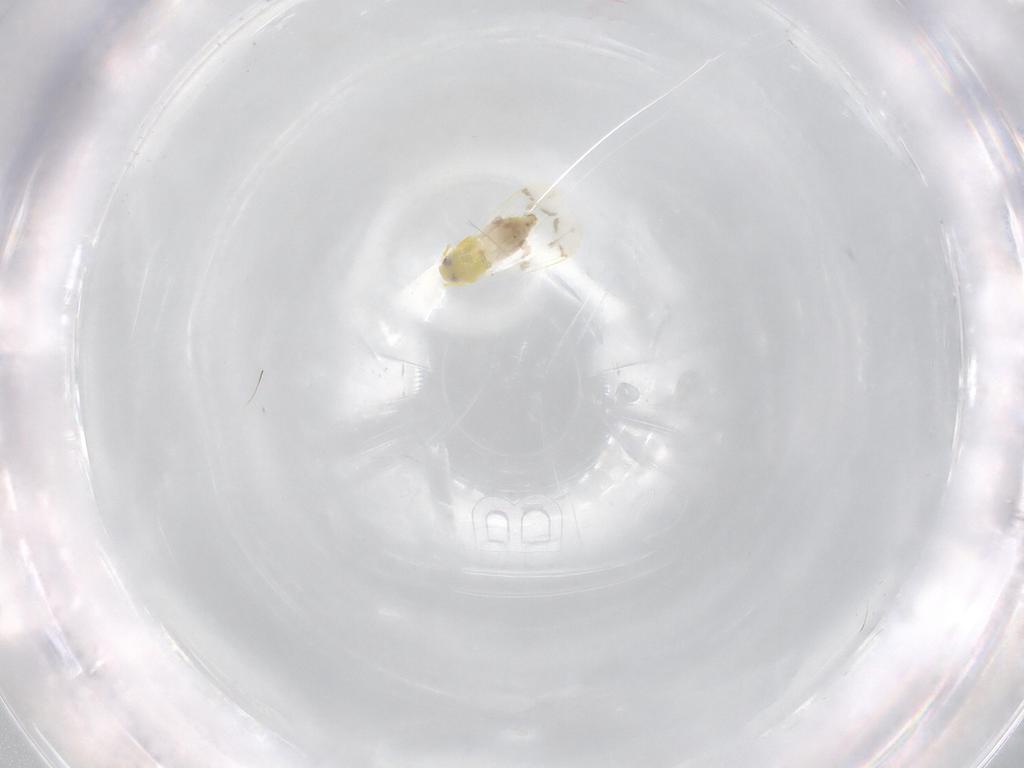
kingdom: Animalia
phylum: Arthropoda
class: Insecta
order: Hemiptera
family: Aleyrodidae
